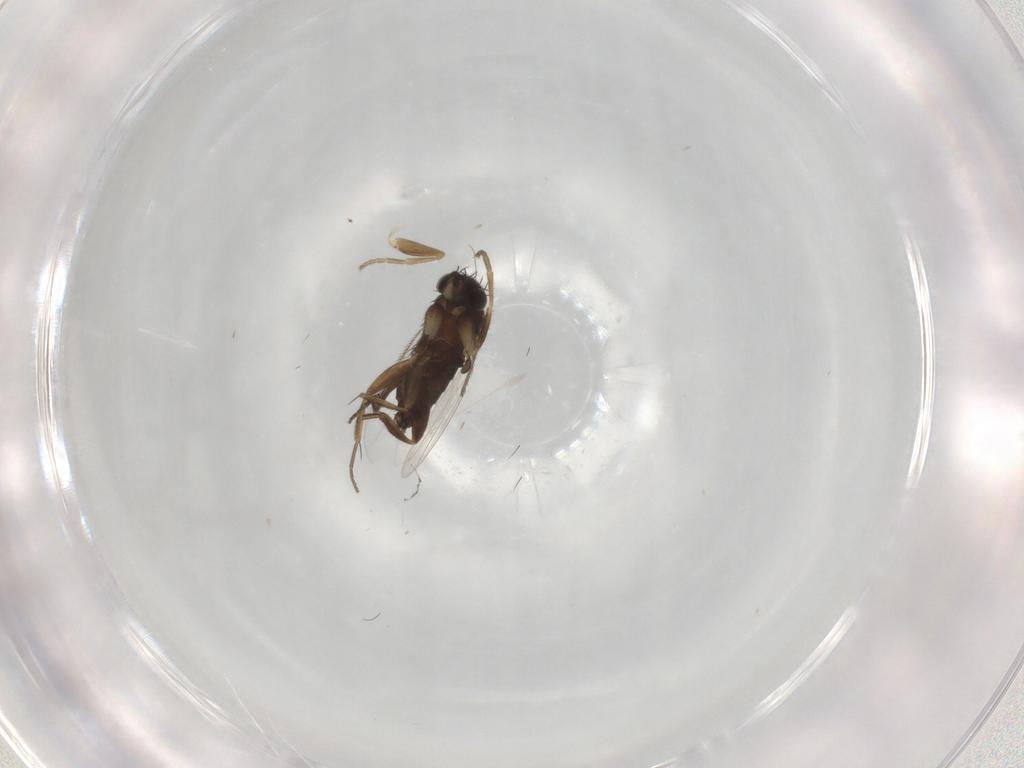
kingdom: Animalia
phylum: Arthropoda
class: Insecta
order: Diptera
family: Phoridae
